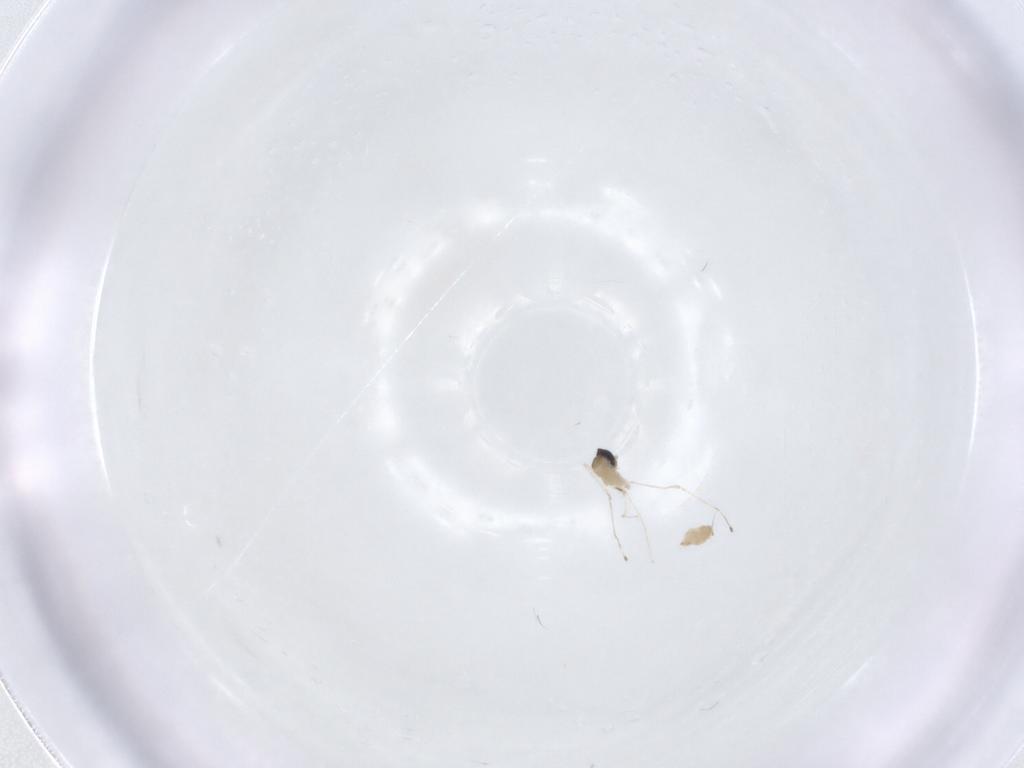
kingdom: Animalia
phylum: Arthropoda
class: Insecta
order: Diptera
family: Cecidomyiidae
